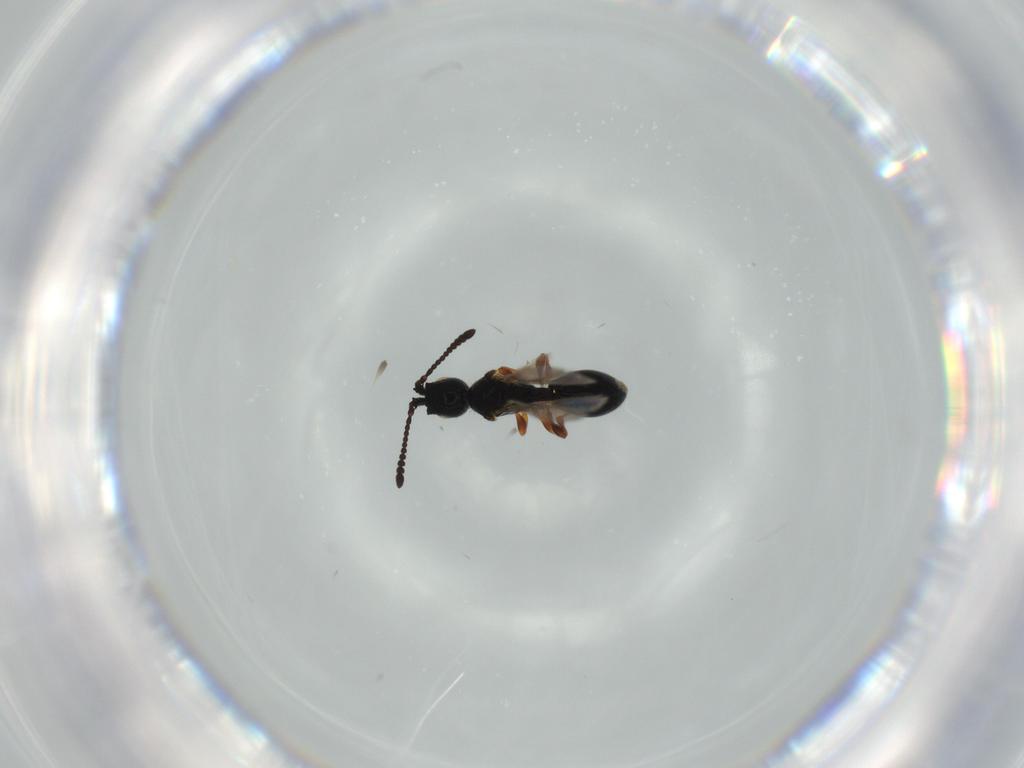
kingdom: Animalia
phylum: Arthropoda
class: Insecta
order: Hymenoptera
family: Diapriidae
